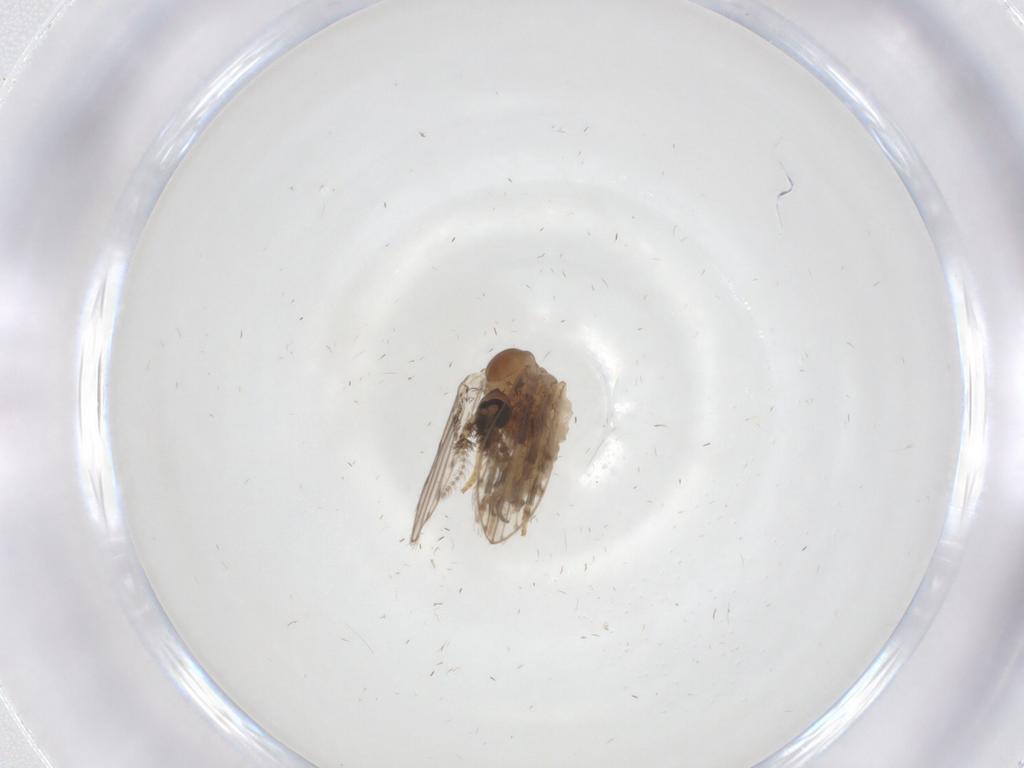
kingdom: Animalia
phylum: Arthropoda
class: Insecta
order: Diptera
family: Psychodidae
